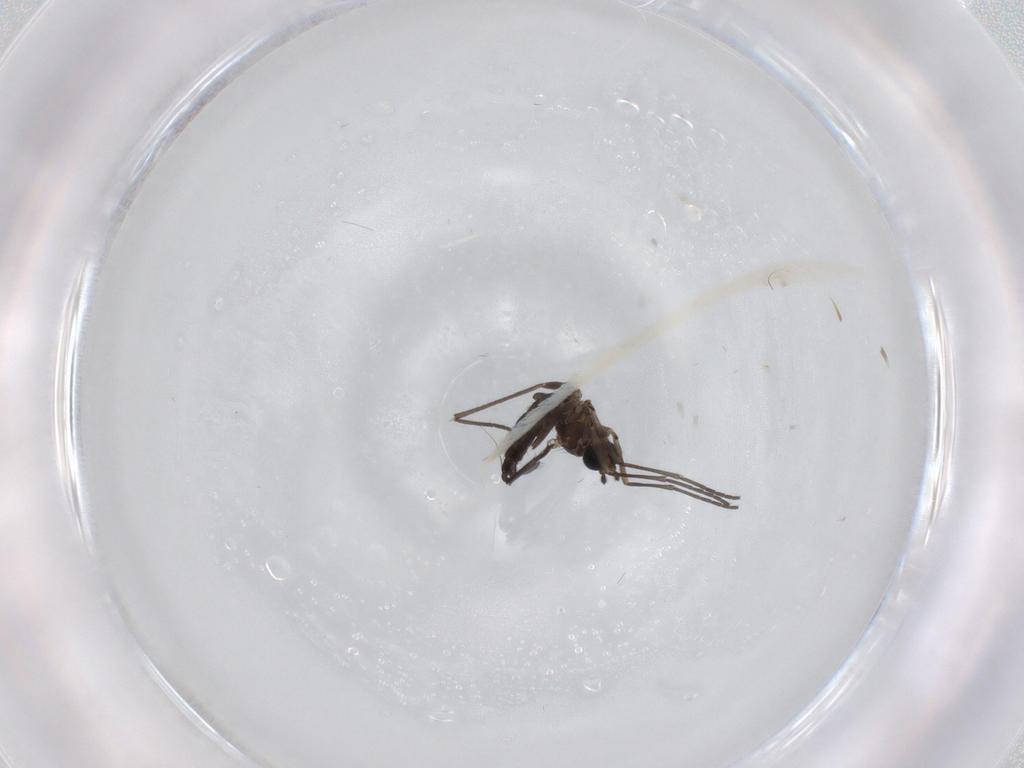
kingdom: Animalia
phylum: Arthropoda
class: Insecta
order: Diptera
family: Sciaridae
